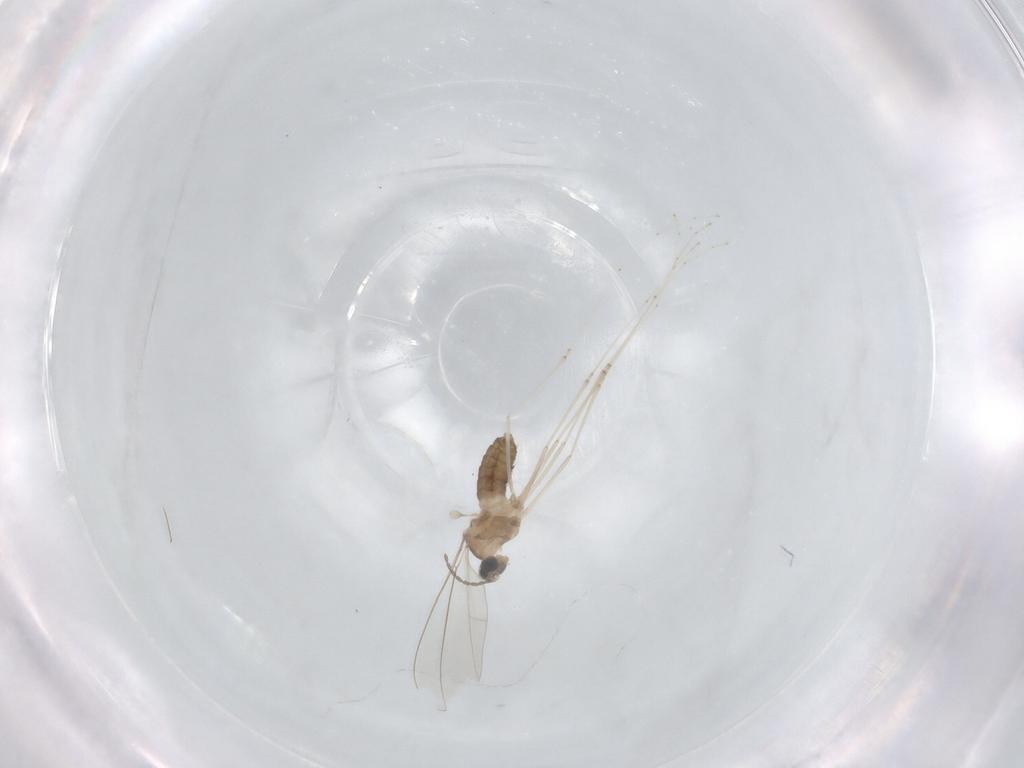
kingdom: Animalia
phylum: Arthropoda
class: Insecta
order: Diptera
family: Cecidomyiidae
